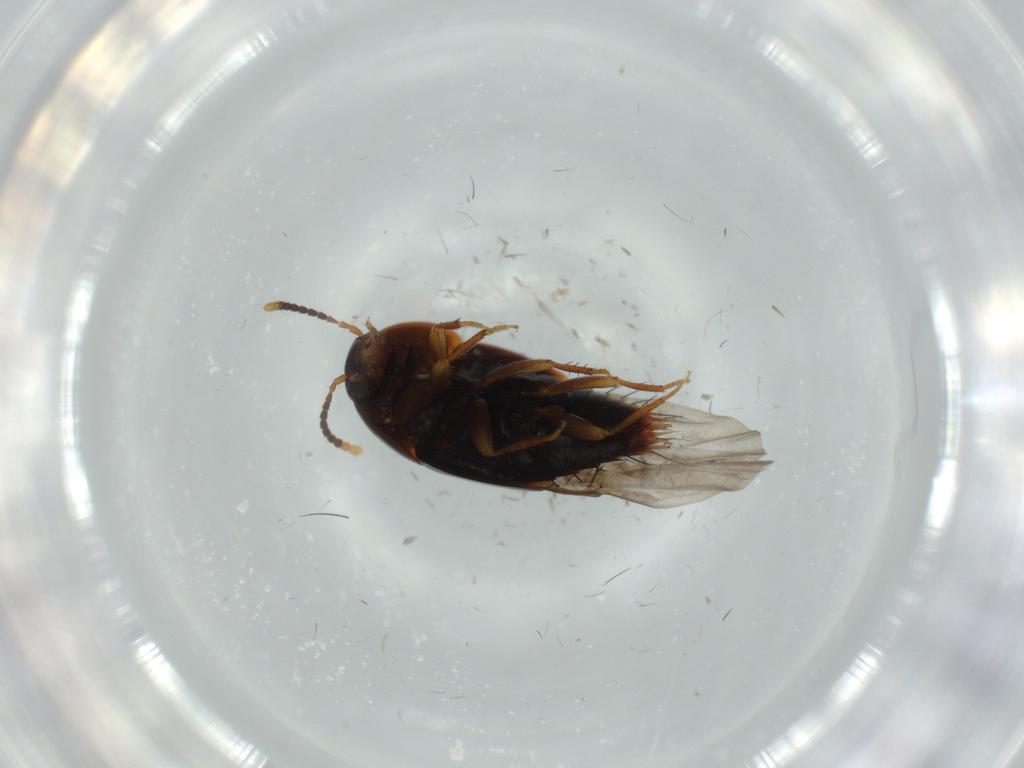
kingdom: Animalia
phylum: Arthropoda
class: Insecta
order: Coleoptera
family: Staphylinidae
